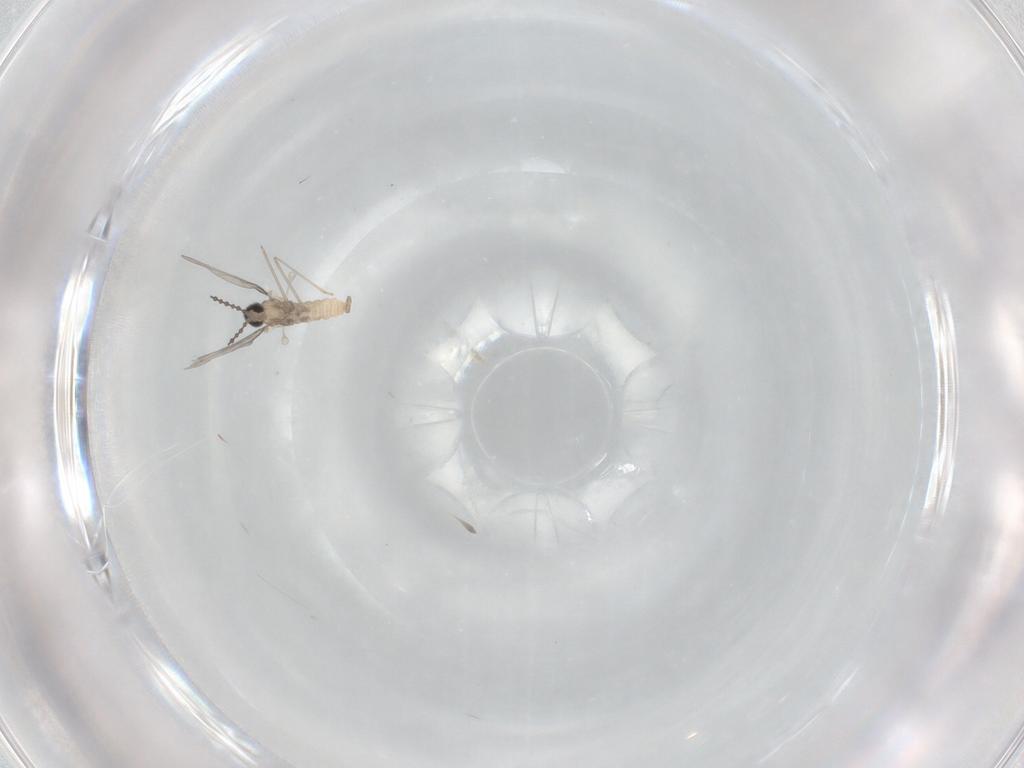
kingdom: Animalia
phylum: Arthropoda
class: Insecta
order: Diptera
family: Cecidomyiidae
